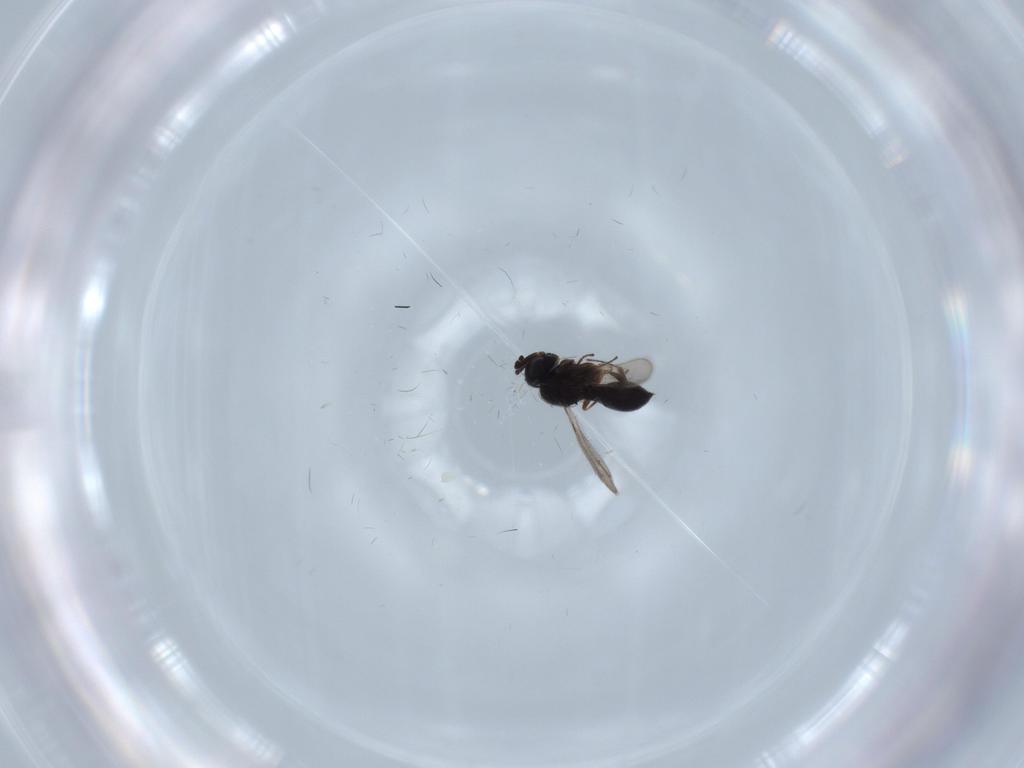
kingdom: Animalia
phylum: Arthropoda
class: Insecta
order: Hymenoptera
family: Scelionidae
